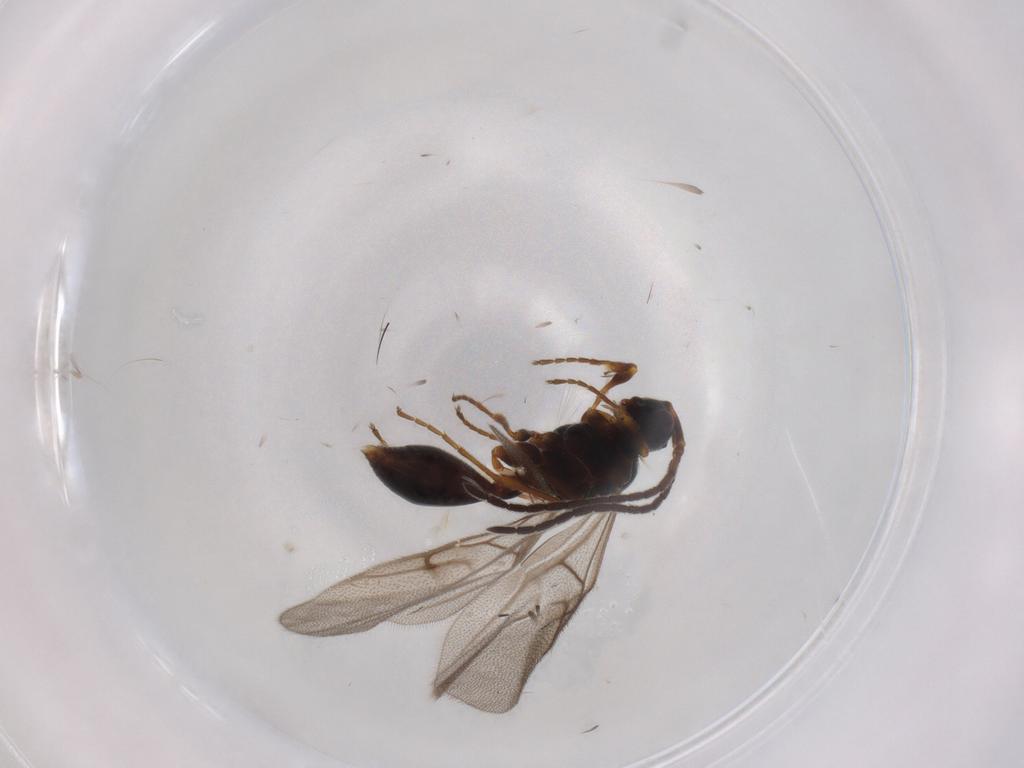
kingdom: Animalia
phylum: Arthropoda
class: Insecta
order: Hymenoptera
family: Diapriidae
